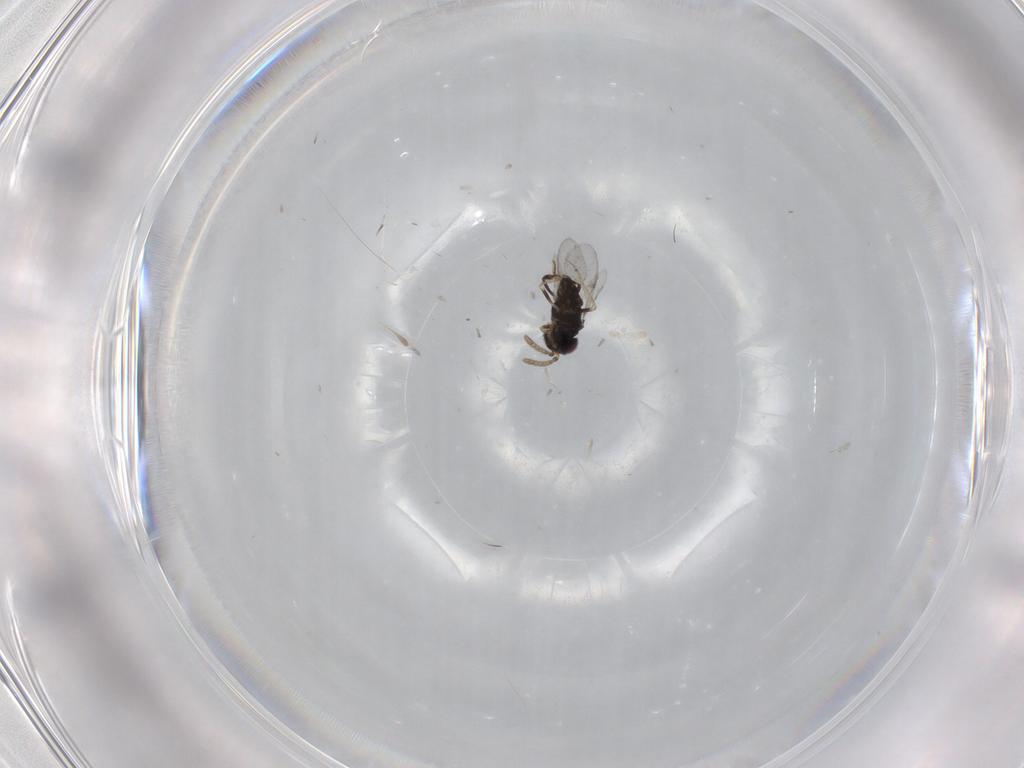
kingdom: Animalia
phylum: Arthropoda
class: Insecta
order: Hymenoptera
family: Encyrtidae
